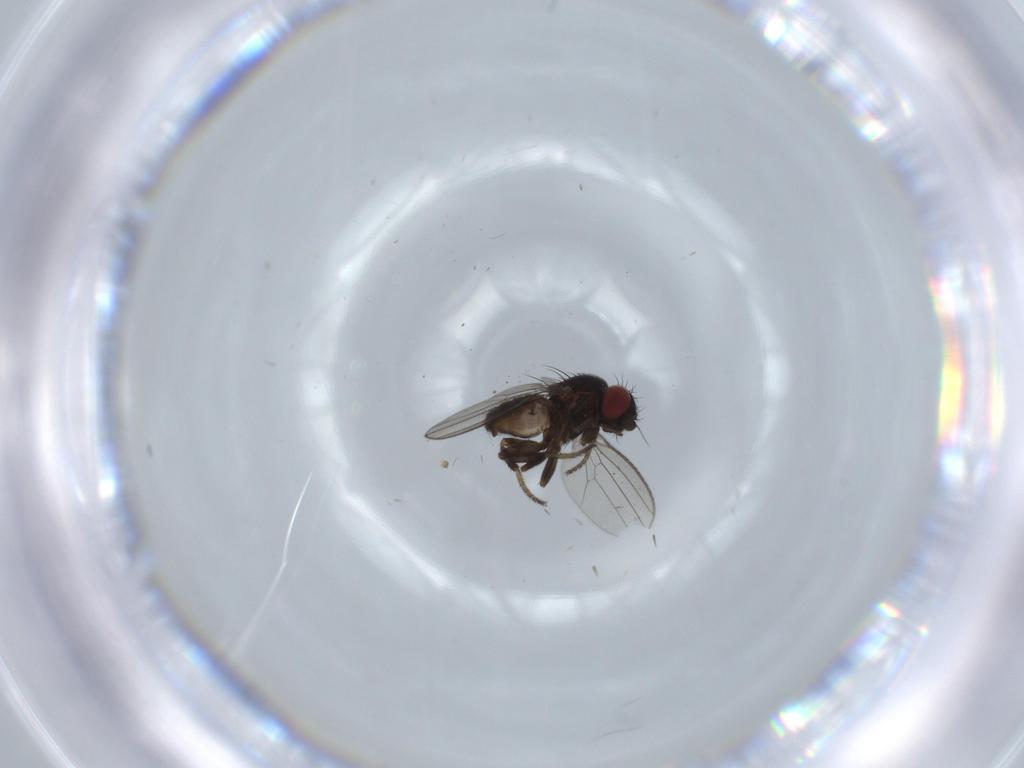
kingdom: Animalia
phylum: Arthropoda
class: Insecta
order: Diptera
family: Milichiidae
